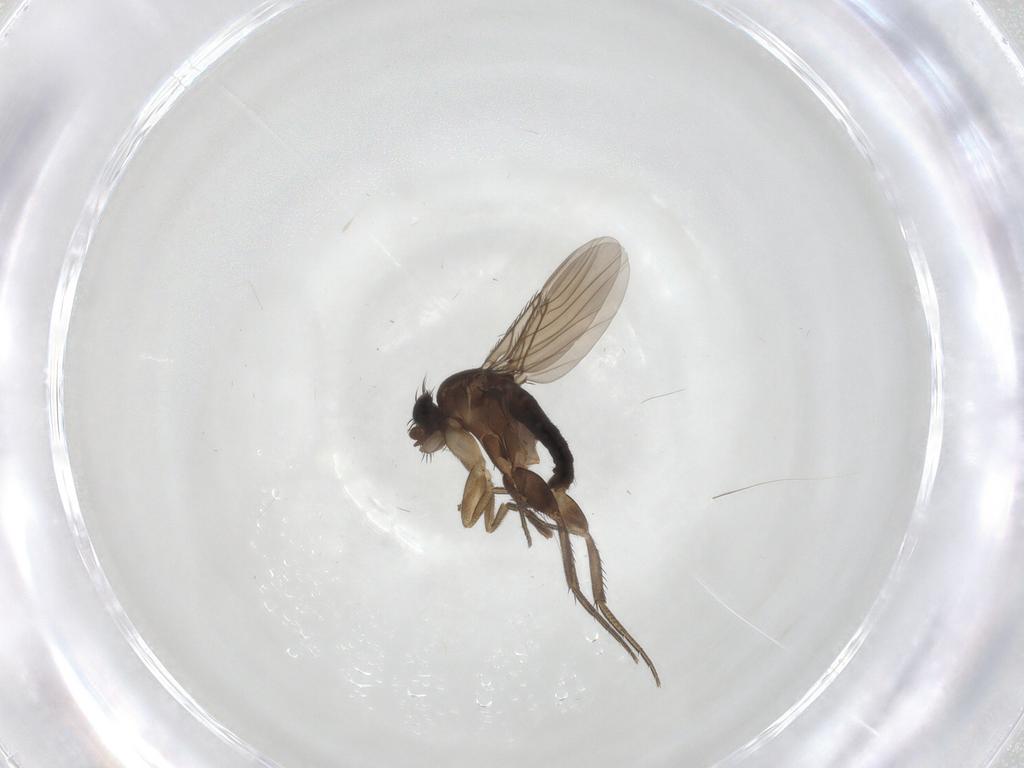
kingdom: Animalia
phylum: Arthropoda
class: Insecta
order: Diptera
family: Phoridae
